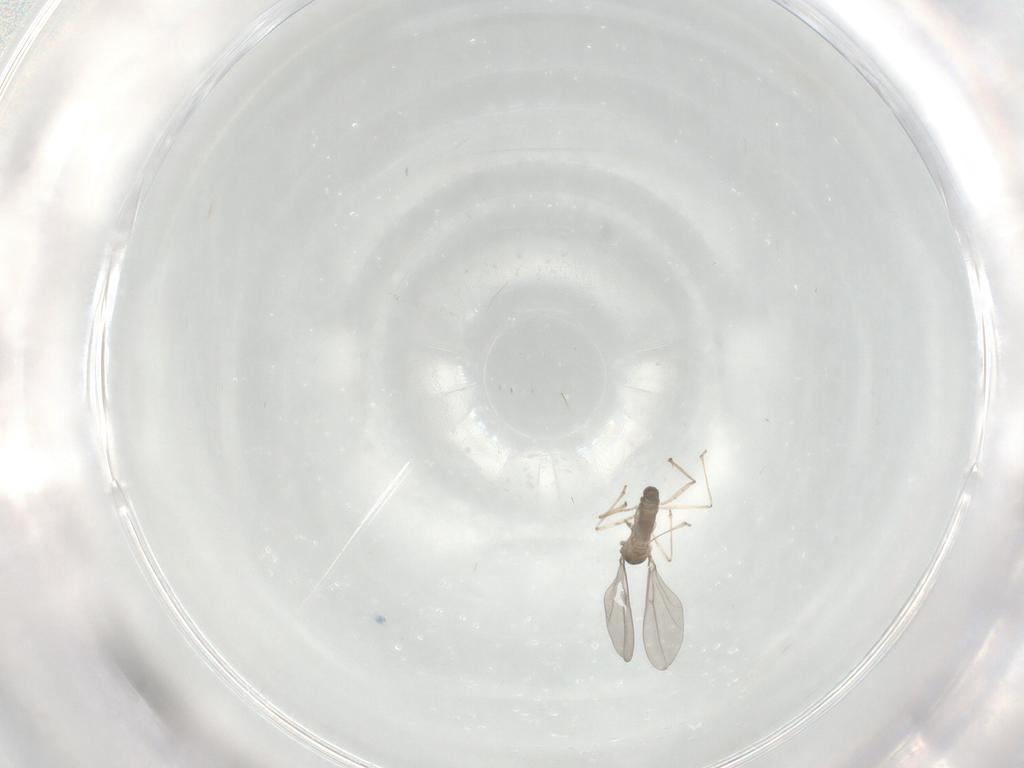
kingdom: Animalia
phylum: Arthropoda
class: Insecta
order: Diptera
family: Cecidomyiidae
